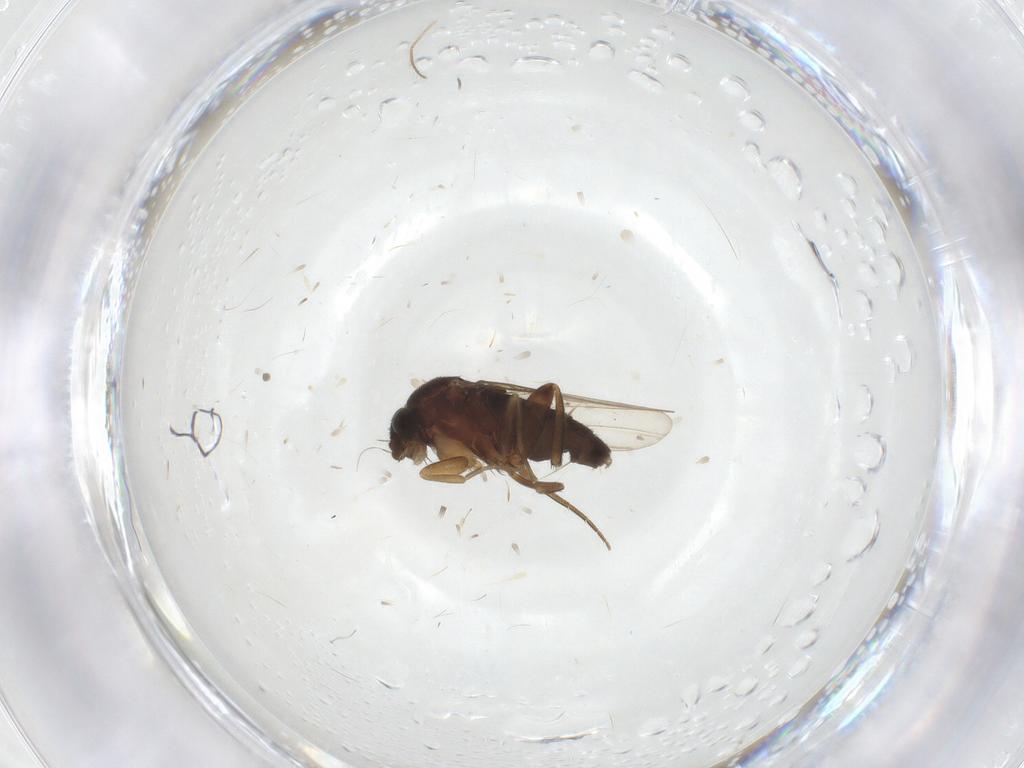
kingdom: Animalia
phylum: Arthropoda
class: Insecta
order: Diptera
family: Phoridae
